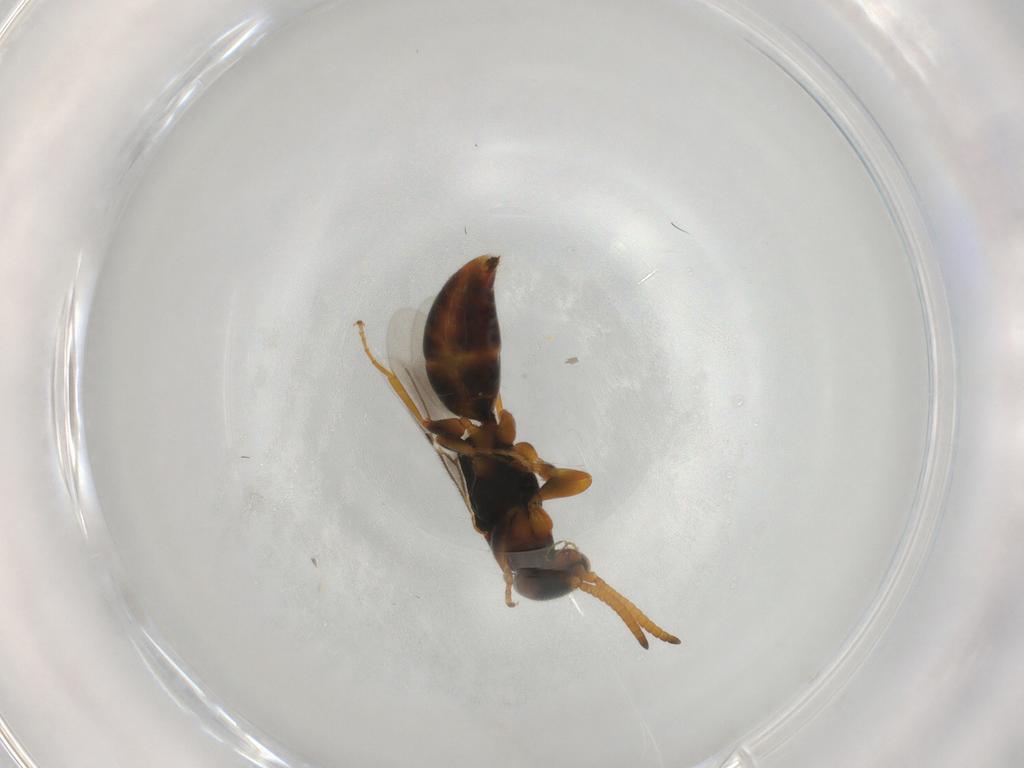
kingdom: Animalia
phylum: Arthropoda
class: Insecta
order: Hymenoptera
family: Bethylidae
